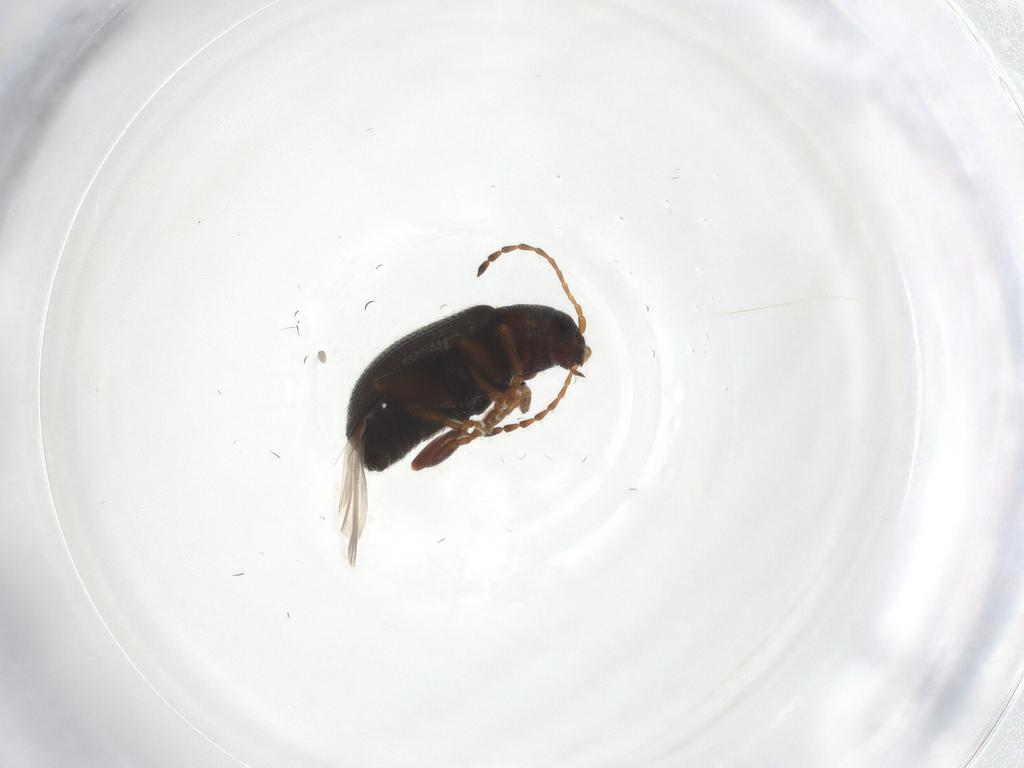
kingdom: Animalia
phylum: Arthropoda
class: Insecta
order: Coleoptera
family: Chrysomelidae
